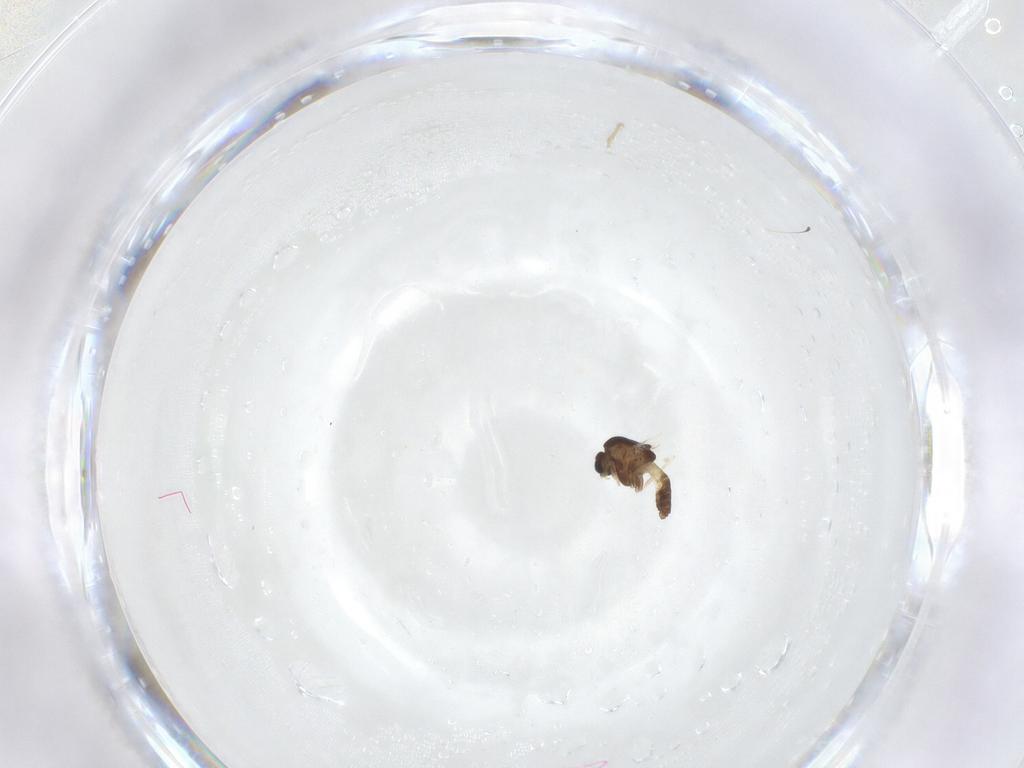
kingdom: Animalia
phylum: Arthropoda
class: Insecta
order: Diptera
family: Chironomidae
